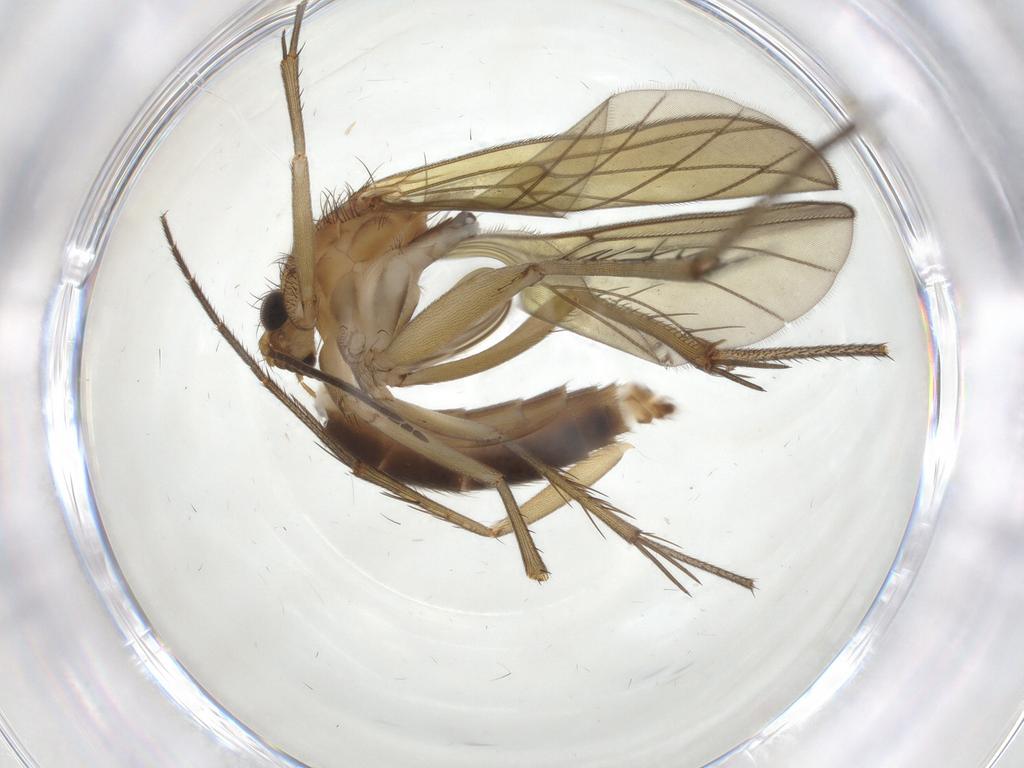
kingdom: Animalia
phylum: Arthropoda
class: Insecta
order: Diptera
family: Mycetophilidae
